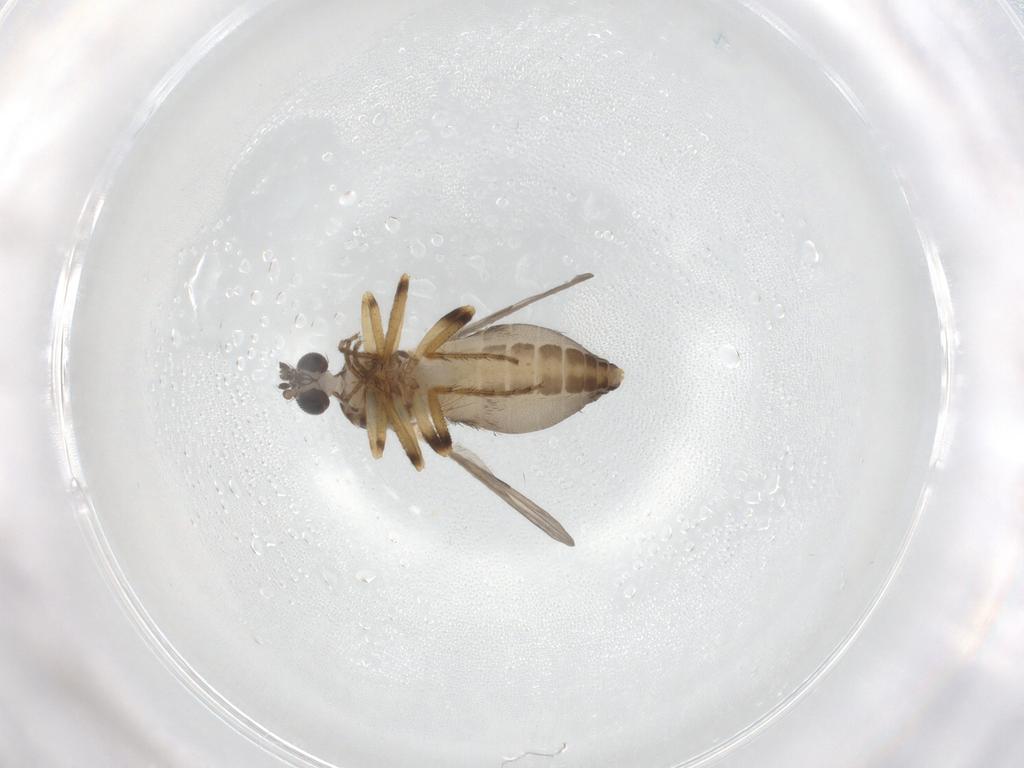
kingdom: Animalia
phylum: Arthropoda
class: Insecta
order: Diptera
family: Ceratopogonidae
